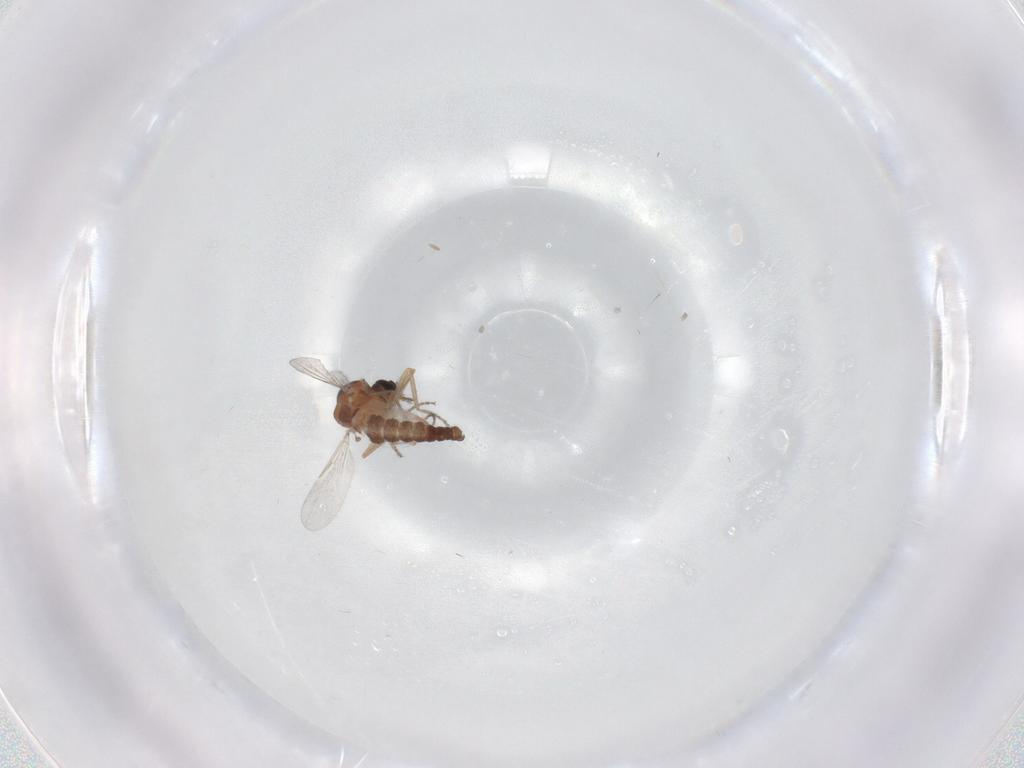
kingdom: Animalia
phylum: Arthropoda
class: Insecta
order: Diptera
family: Ceratopogonidae
